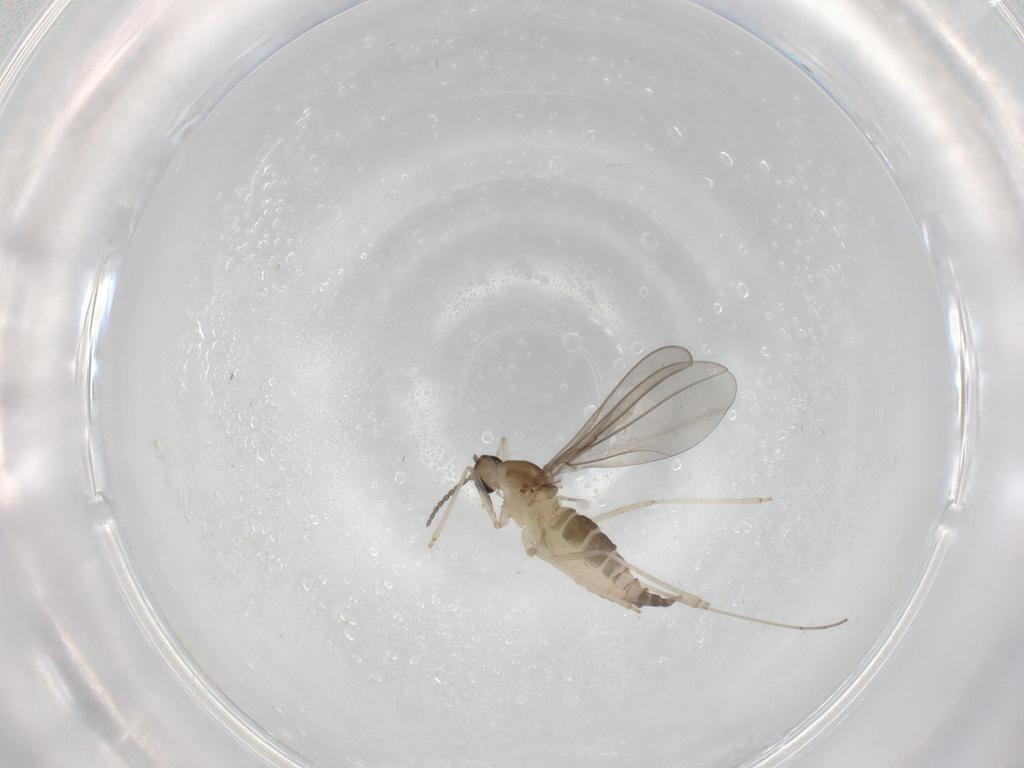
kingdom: Animalia
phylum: Arthropoda
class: Insecta
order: Diptera
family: Cecidomyiidae
